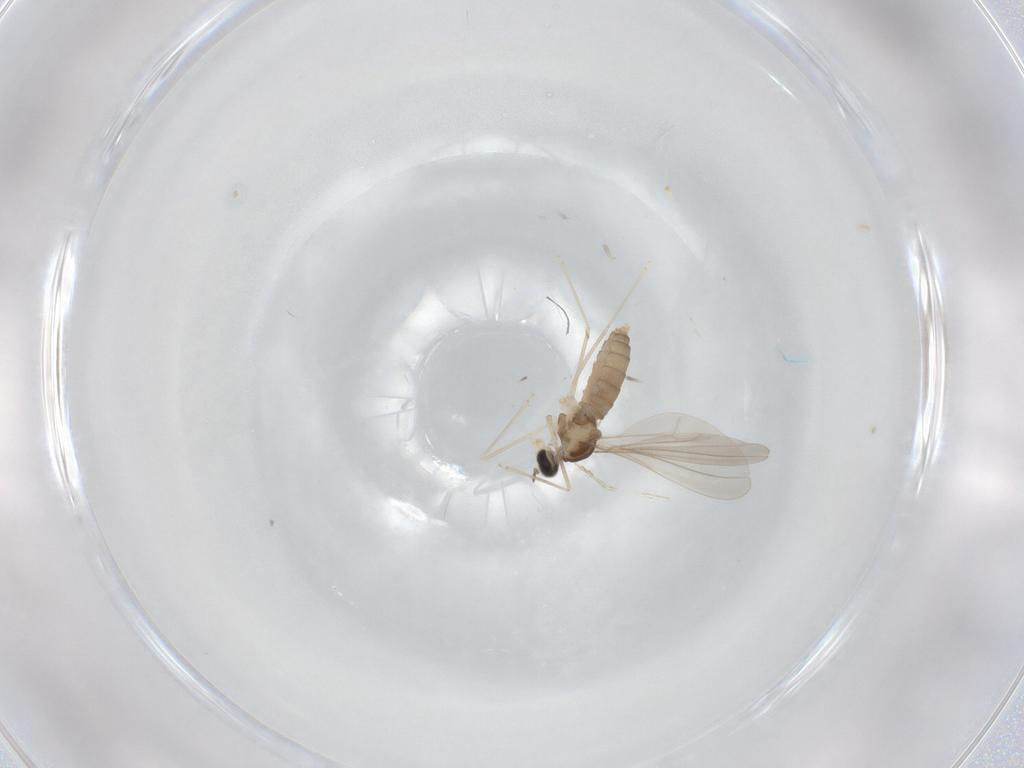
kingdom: Animalia
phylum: Arthropoda
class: Insecta
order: Diptera
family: Cecidomyiidae
